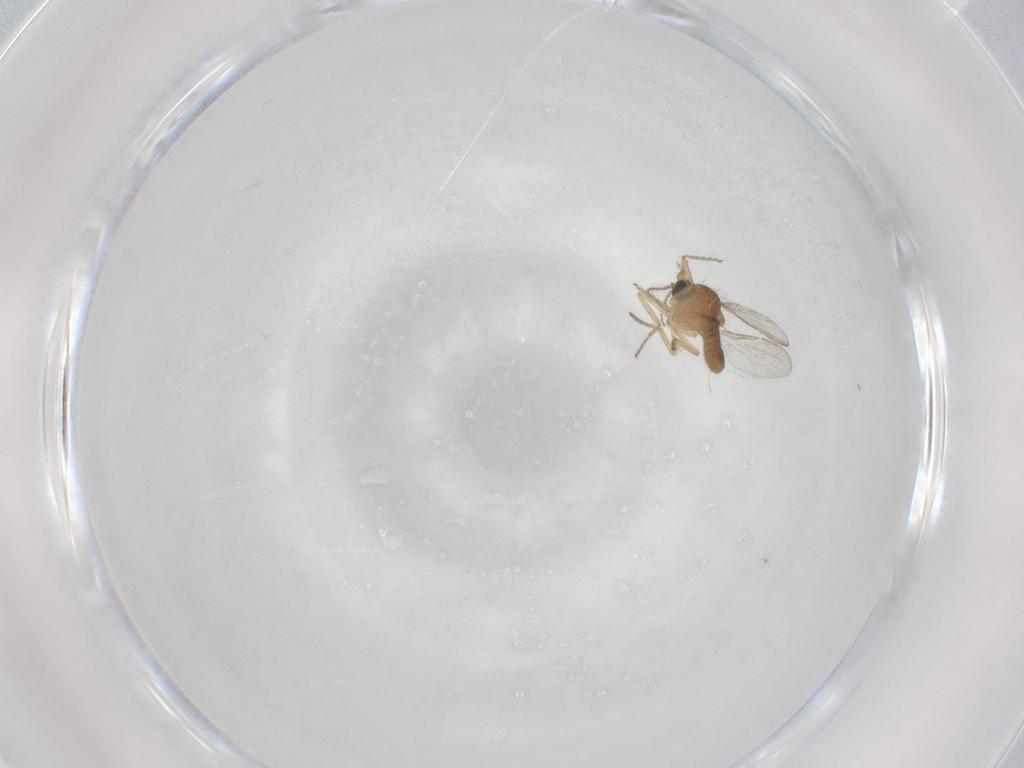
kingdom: Animalia
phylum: Arthropoda
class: Insecta
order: Diptera
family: Ceratopogonidae
